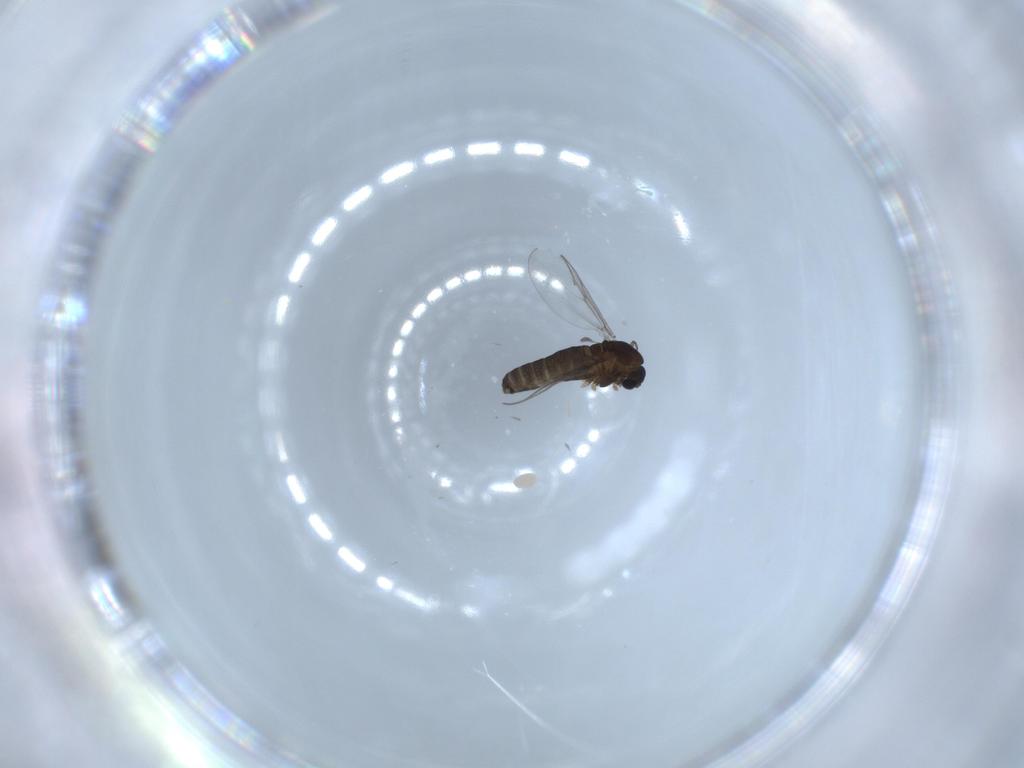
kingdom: Animalia
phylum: Arthropoda
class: Insecta
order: Diptera
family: Chironomidae
